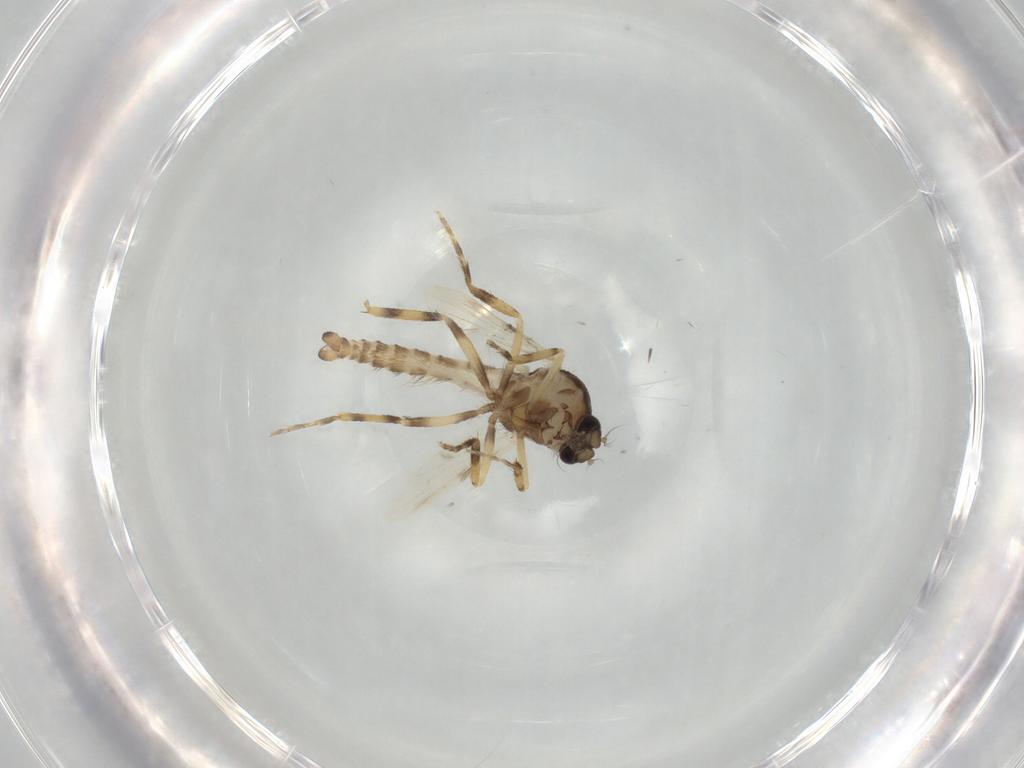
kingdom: Animalia
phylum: Arthropoda
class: Insecta
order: Diptera
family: Ceratopogonidae
